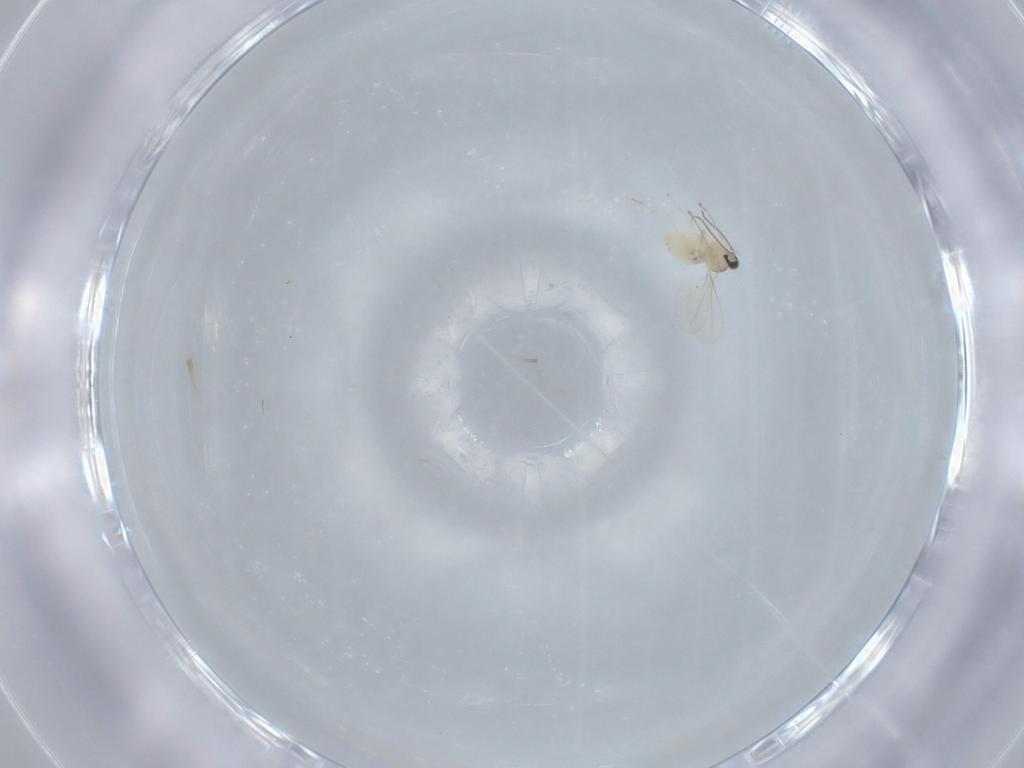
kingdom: Animalia
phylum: Arthropoda
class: Insecta
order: Diptera
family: Cecidomyiidae
